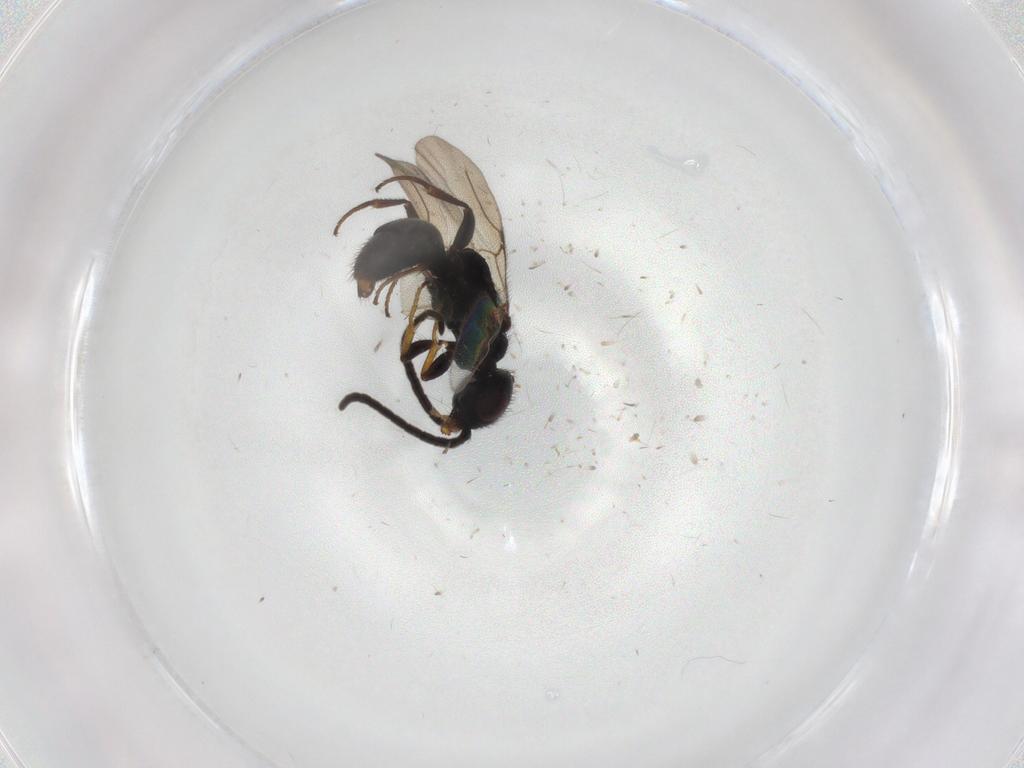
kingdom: Animalia
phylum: Arthropoda
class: Insecta
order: Hymenoptera
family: Bethylidae
